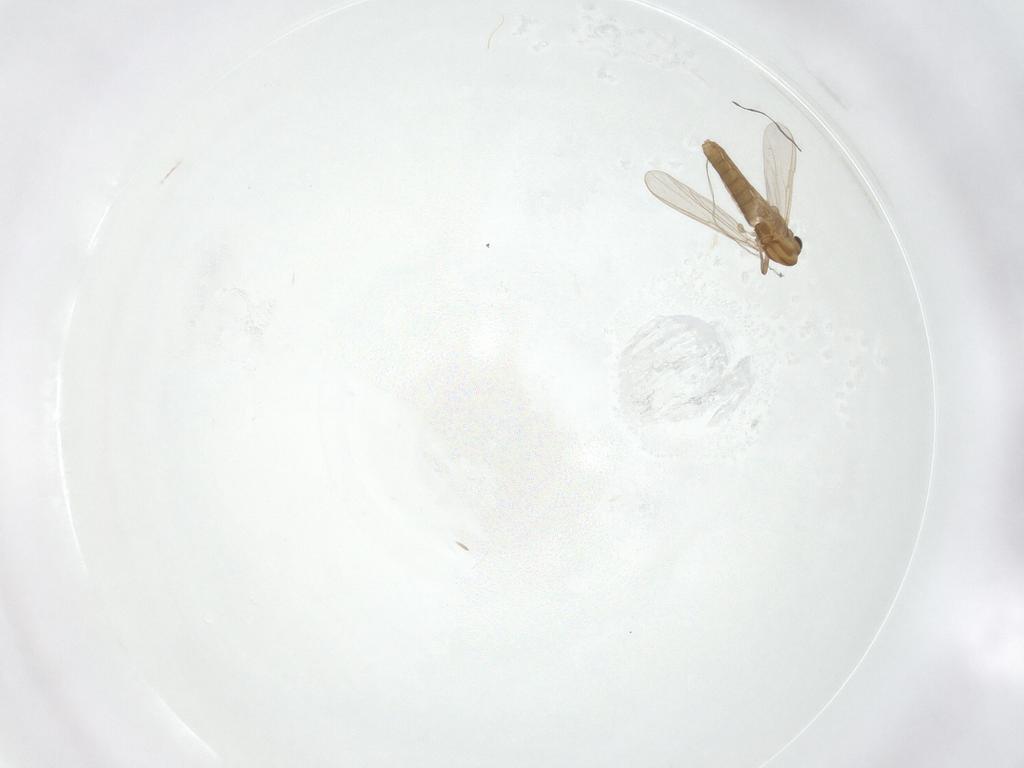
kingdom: Animalia
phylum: Arthropoda
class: Insecta
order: Diptera
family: Chironomidae
